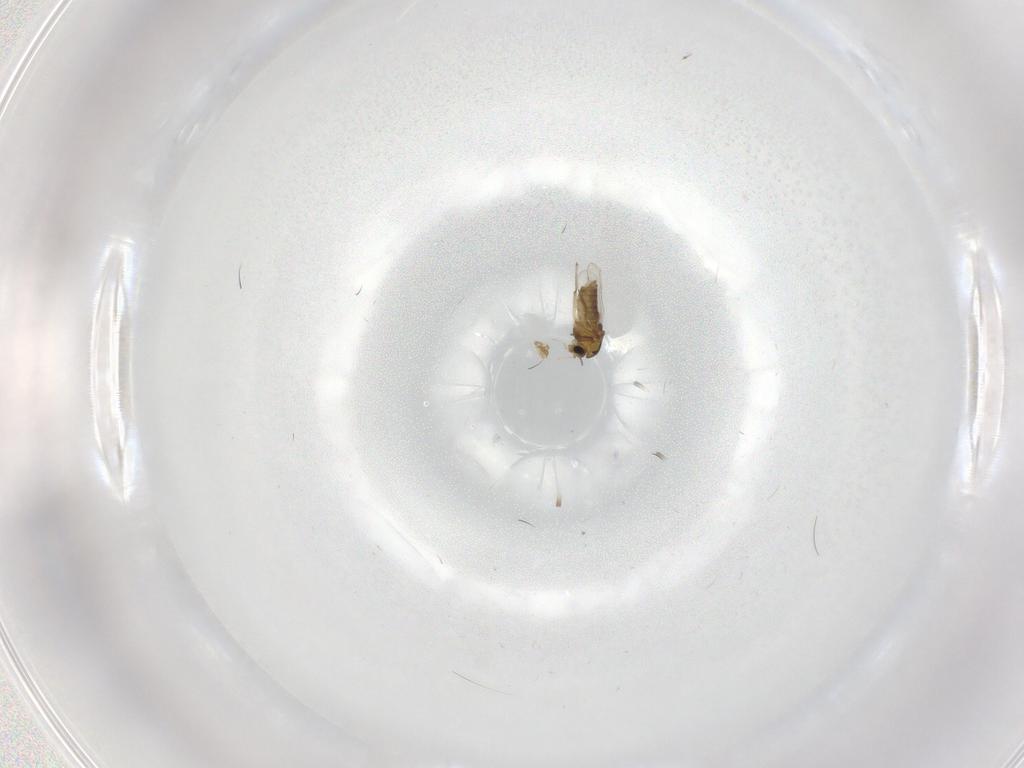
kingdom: Animalia
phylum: Arthropoda
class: Insecta
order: Diptera
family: Chironomidae
